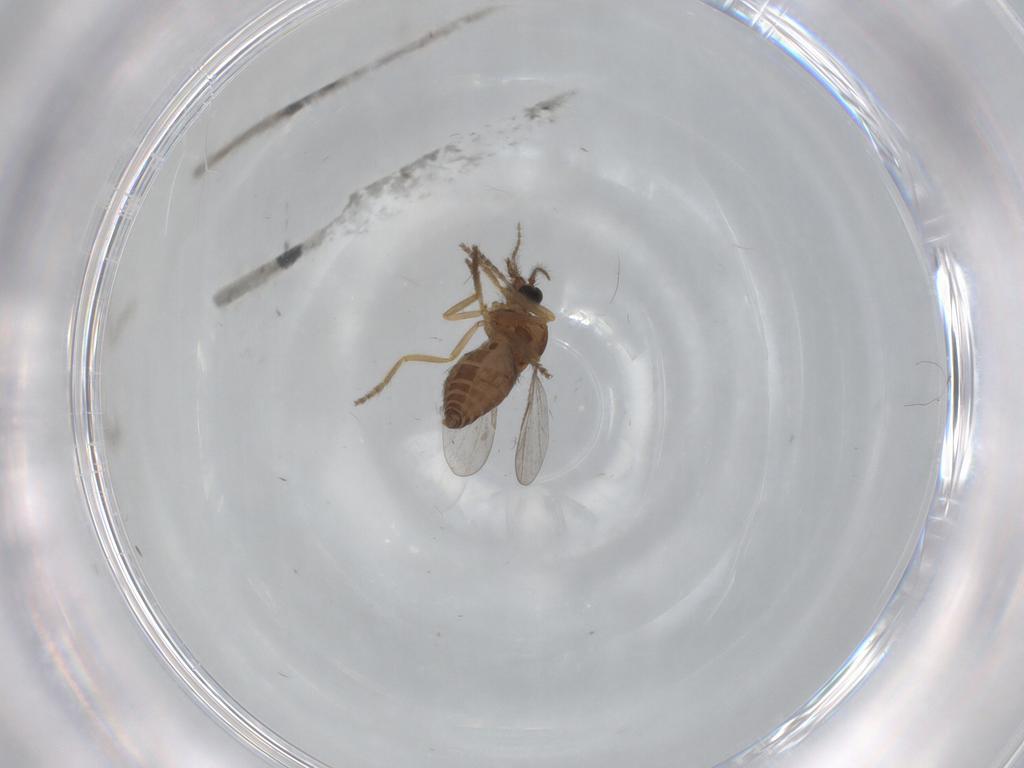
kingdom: Animalia
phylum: Arthropoda
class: Insecta
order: Diptera
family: Ceratopogonidae
